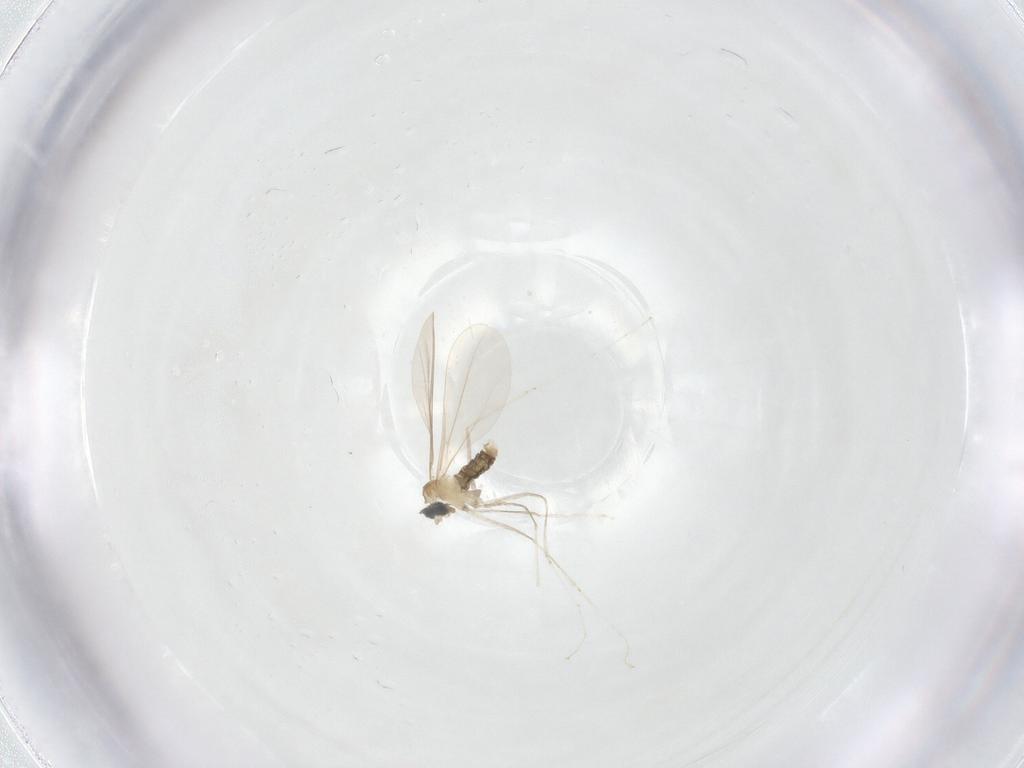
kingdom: Animalia
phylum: Arthropoda
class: Insecta
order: Diptera
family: Cecidomyiidae
